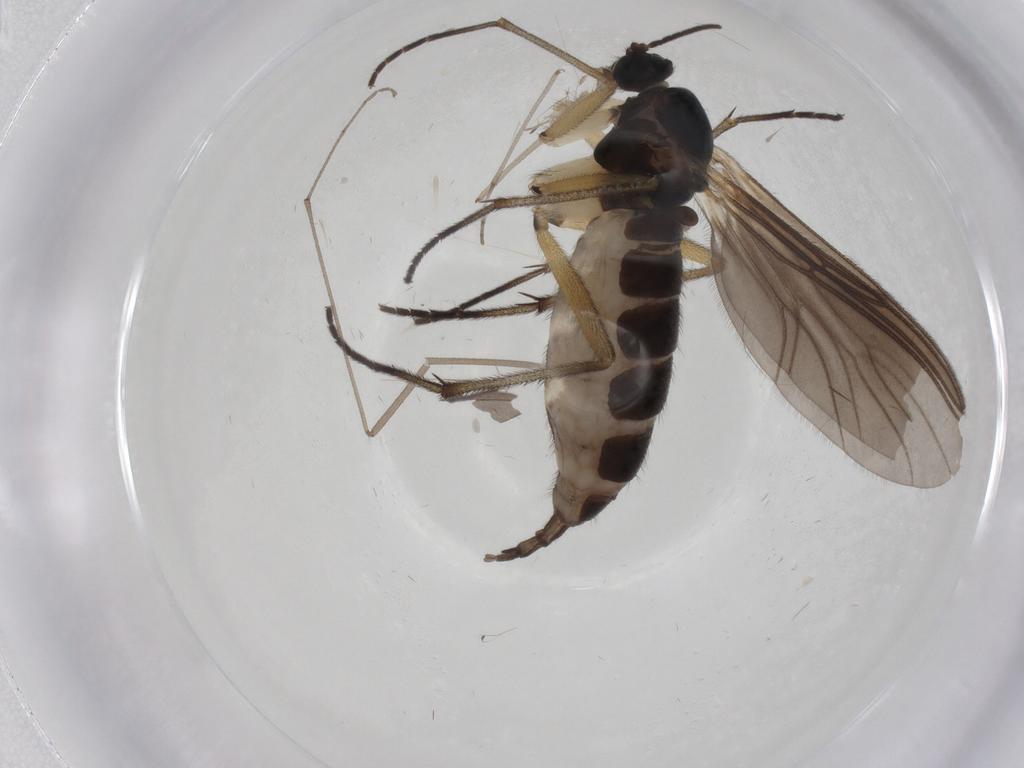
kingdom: Animalia
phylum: Arthropoda
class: Insecta
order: Diptera
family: Sciaridae
